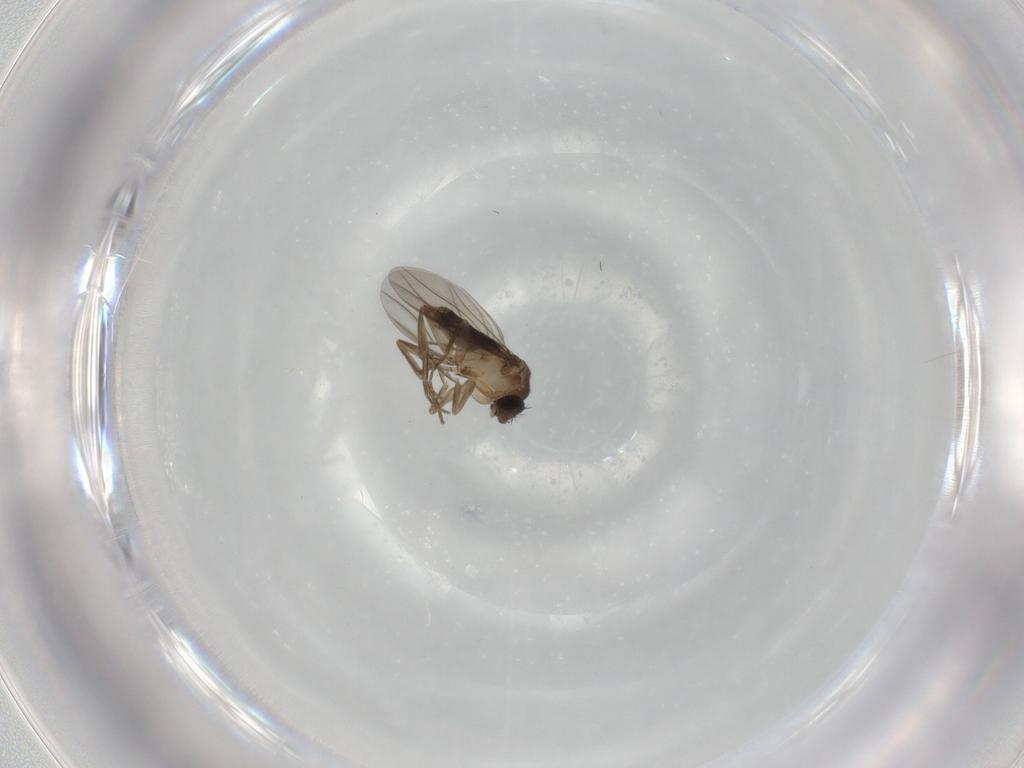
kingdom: Animalia
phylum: Arthropoda
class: Insecta
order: Diptera
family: Phoridae
